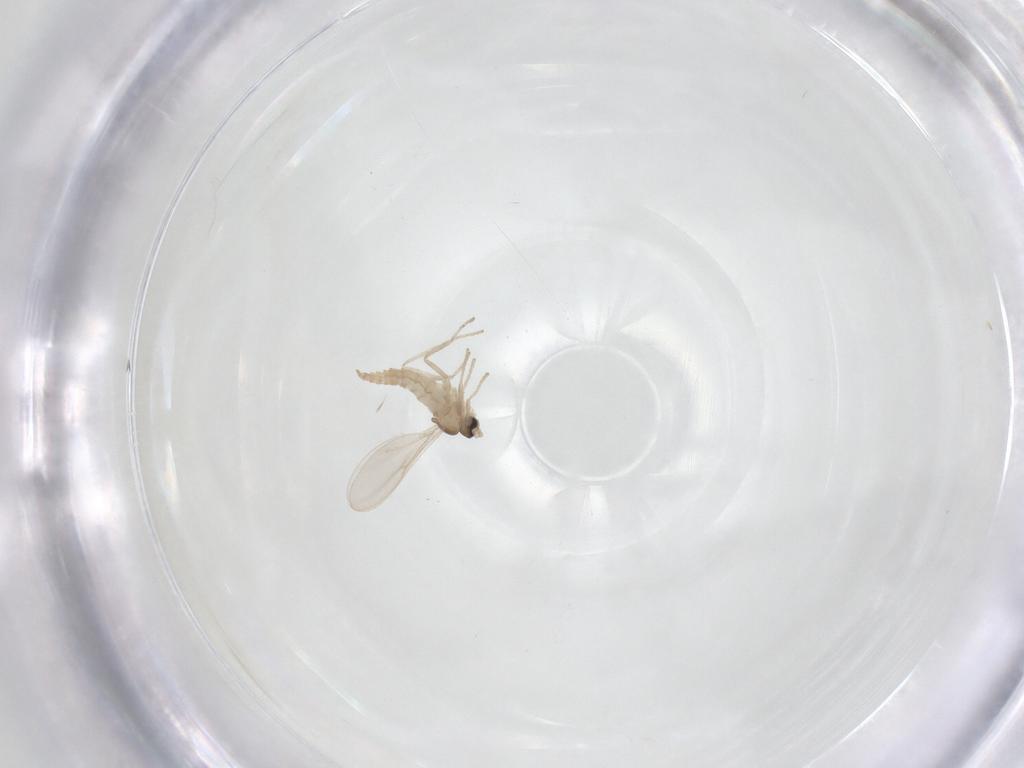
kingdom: Animalia
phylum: Arthropoda
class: Insecta
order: Diptera
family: Cecidomyiidae
